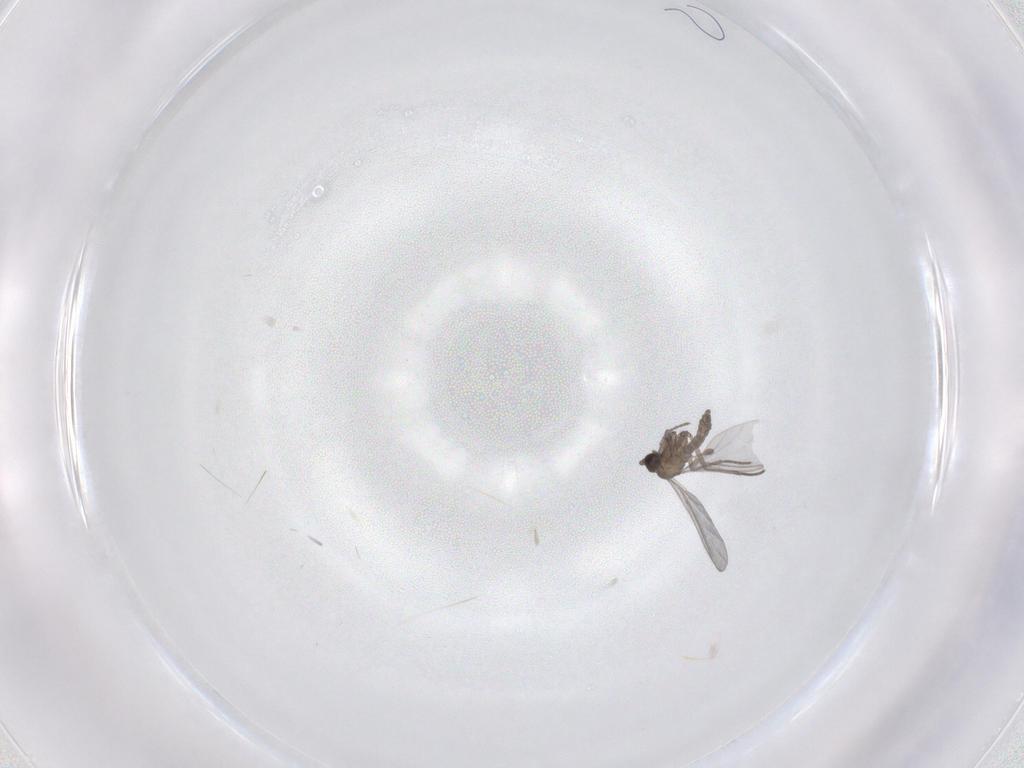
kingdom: Animalia
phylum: Arthropoda
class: Insecta
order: Diptera
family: Sciaridae
